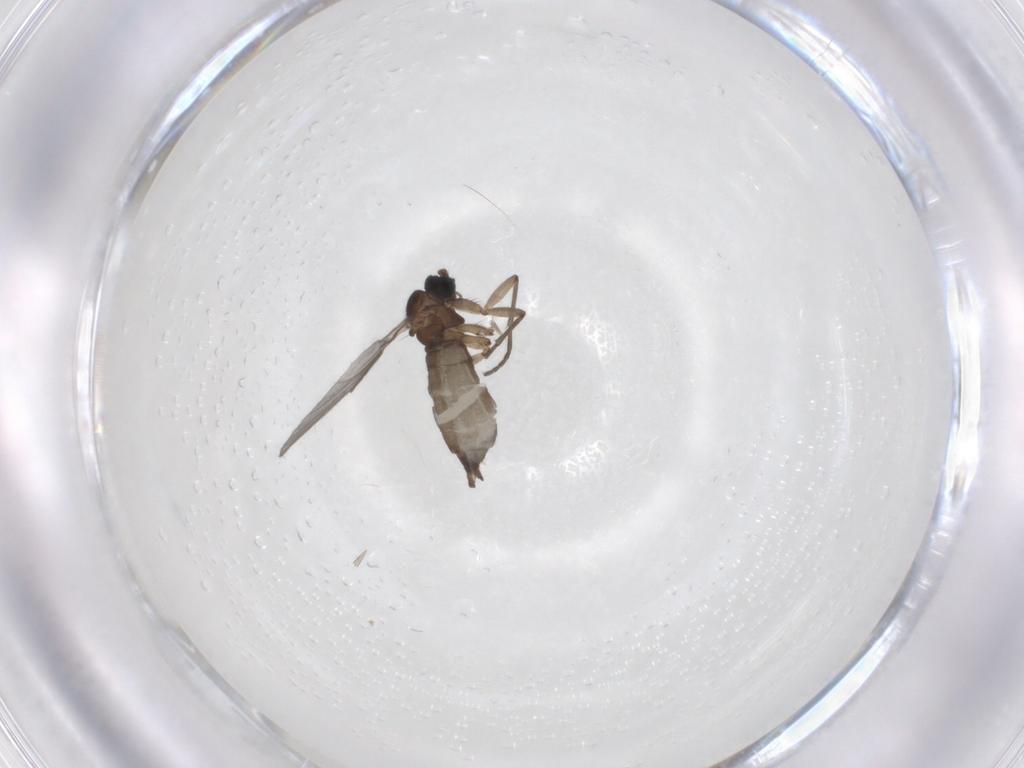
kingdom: Animalia
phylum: Arthropoda
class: Insecta
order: Diptera
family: Sciaridae
